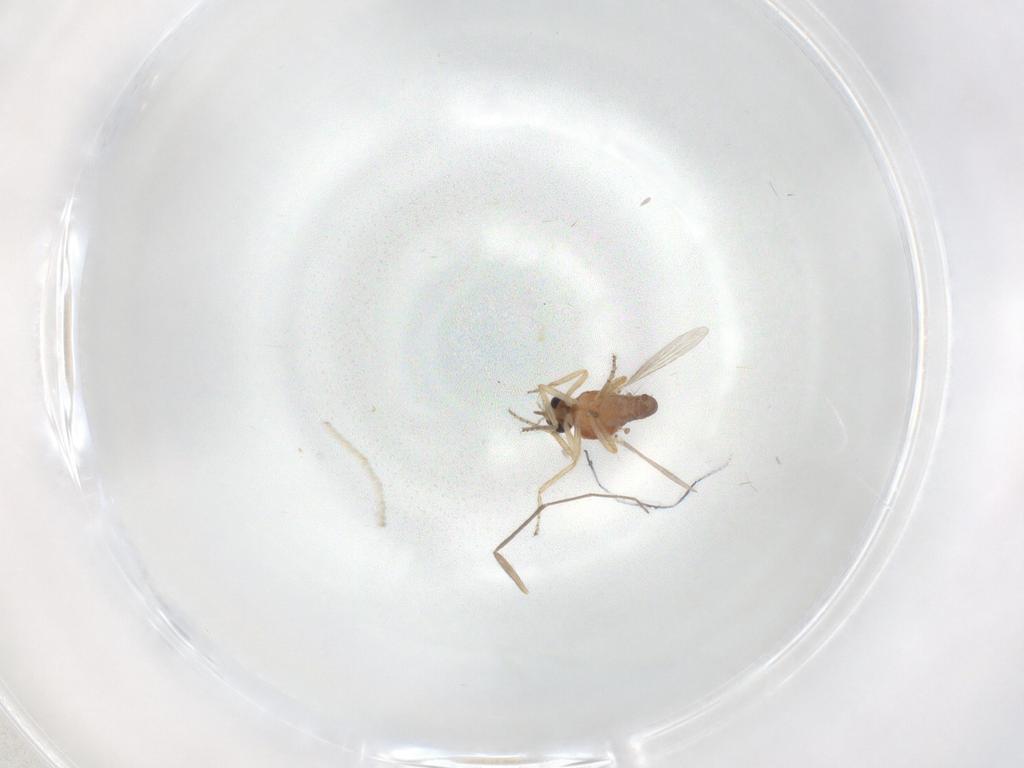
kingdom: Animalia
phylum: Arthropoda
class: Insecta
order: Diptera
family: Ceratopogonidae
